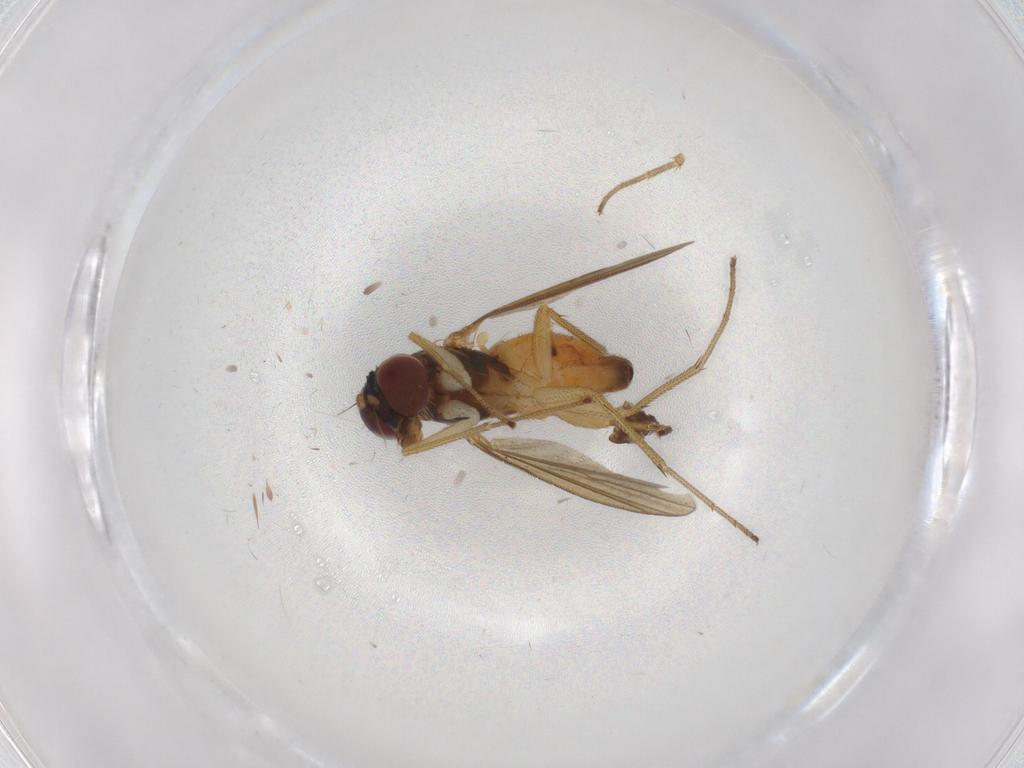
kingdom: Animalia
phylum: Arthropoda
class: Insecta
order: Diptera
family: Dolichopodidae
